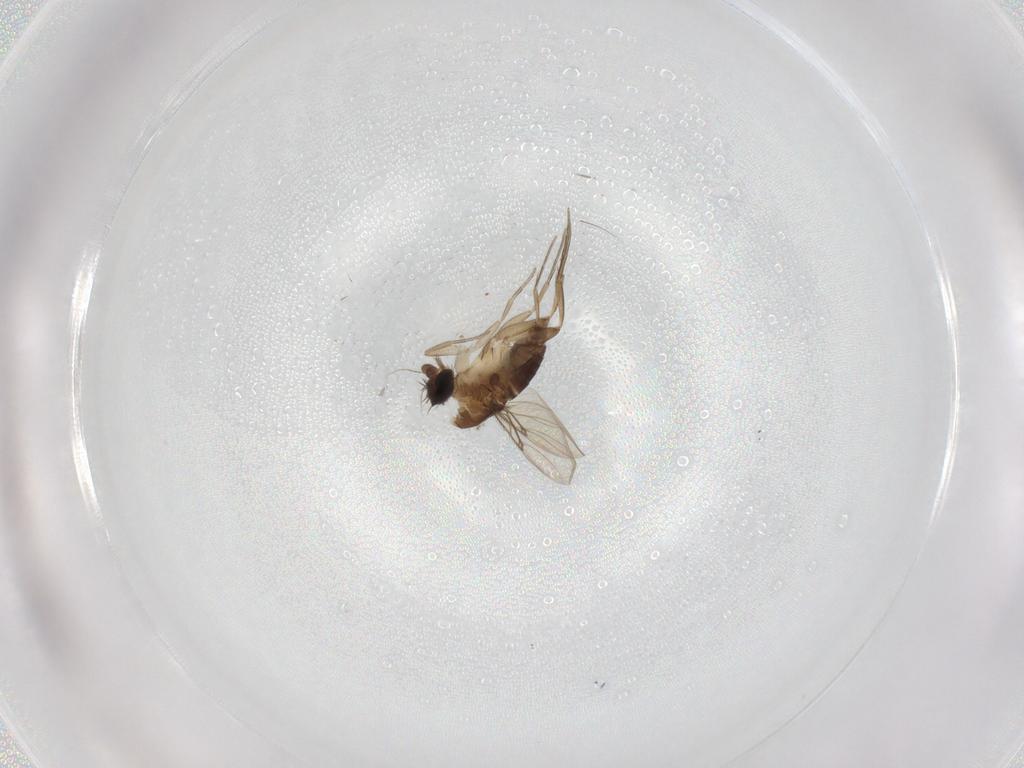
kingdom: Animalia
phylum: Arthropoda
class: Insecta
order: Diptera
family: Phoridae
